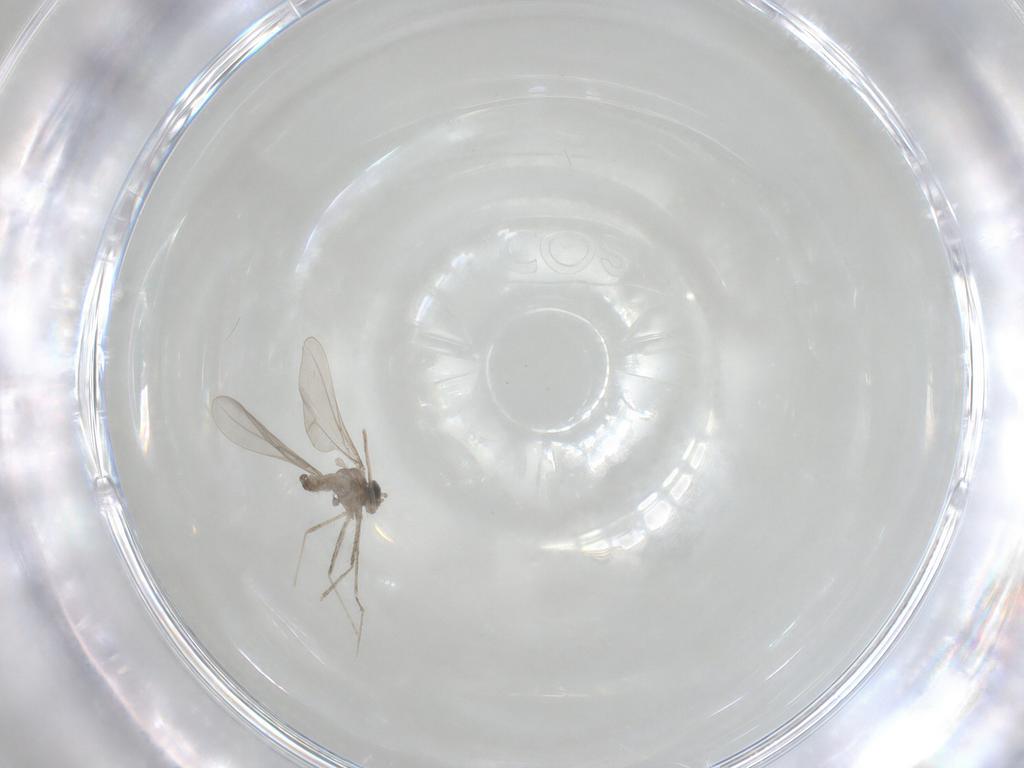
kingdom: Animalia
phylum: Arthropoda
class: Insecta
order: Diptera
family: Cecidomyiidae
